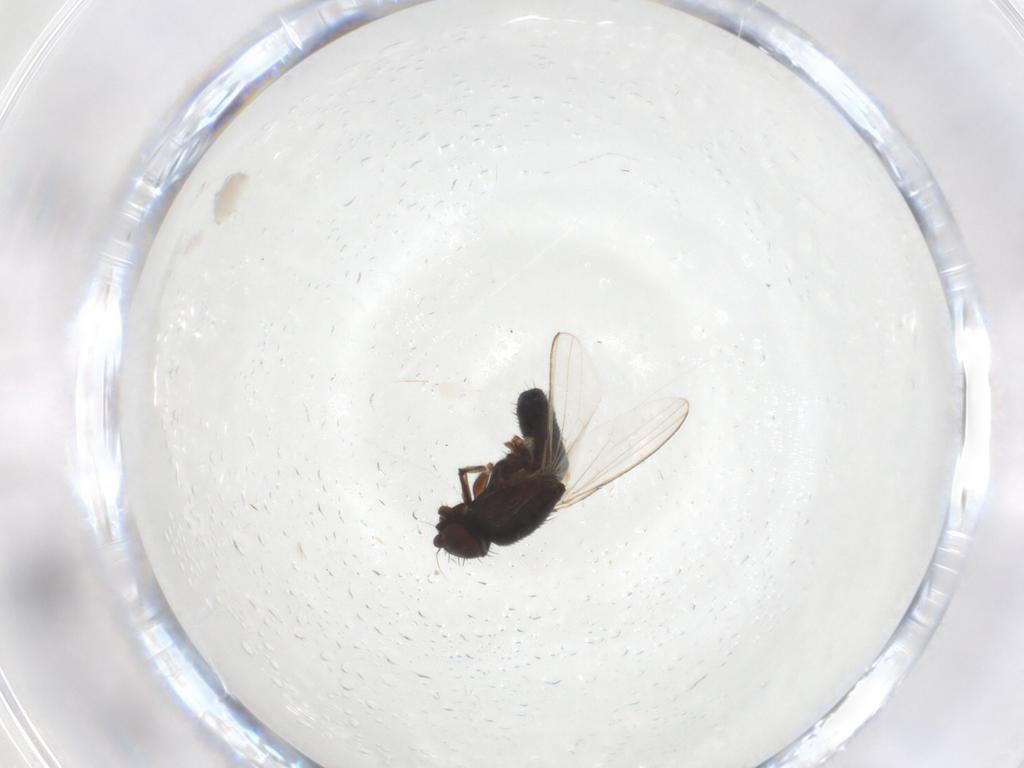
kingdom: Animalia
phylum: Arthropoda
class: Insecta
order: Diptera
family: Milichiidae
